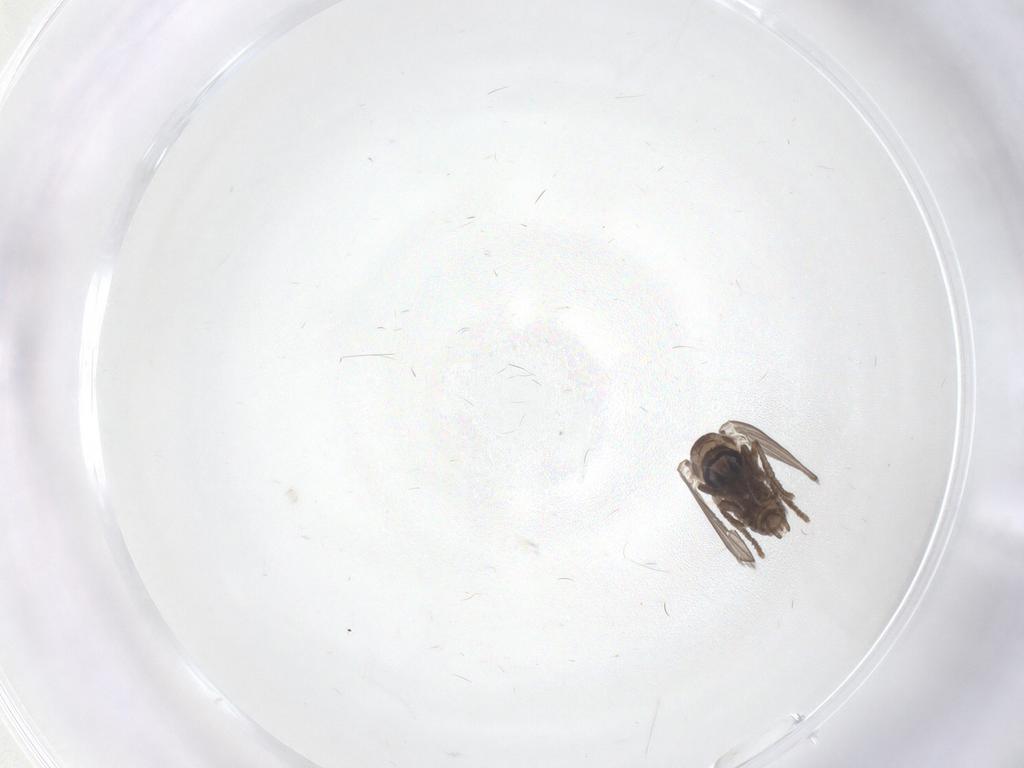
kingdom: Animalia
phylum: Arthropoda
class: Insecta
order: Diptera
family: Psychodidae
